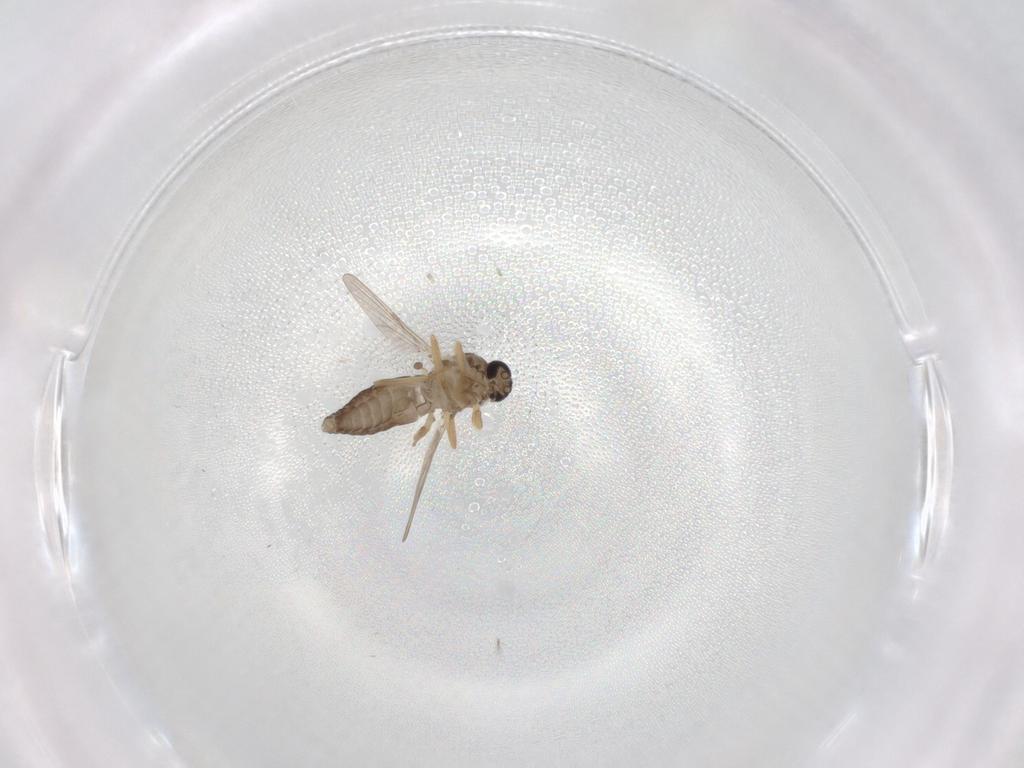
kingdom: Animalia
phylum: Arthropoda
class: Insecta
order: Diptera
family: Ceratopogonidae
